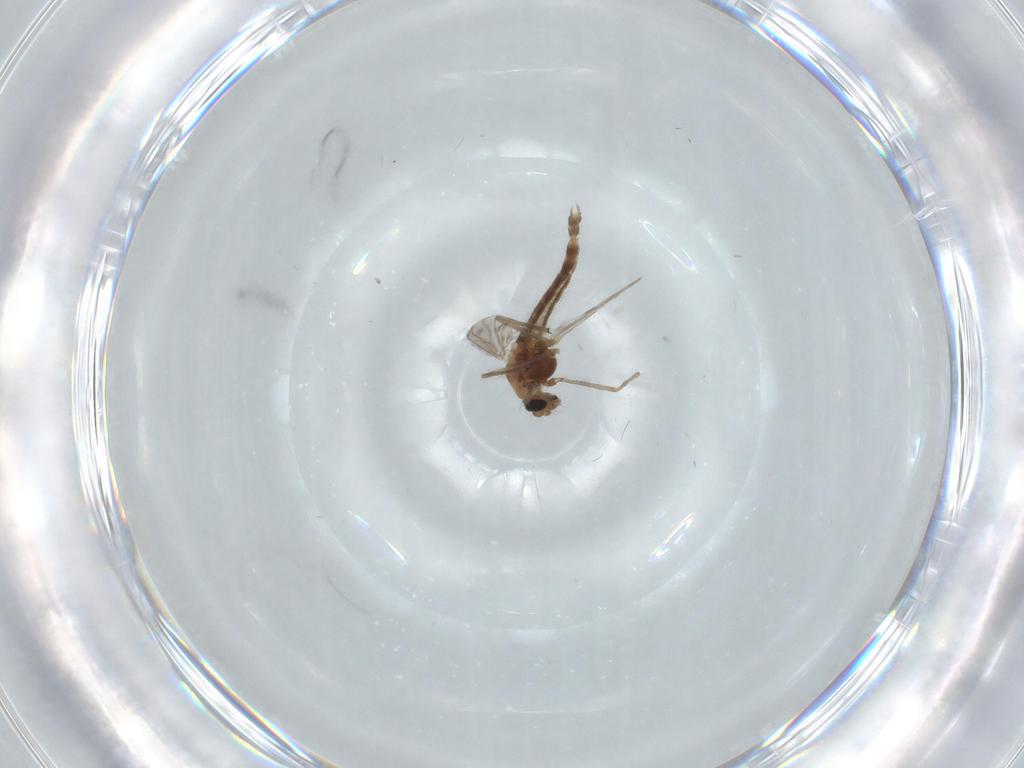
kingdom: Animalia
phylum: Arthropoda
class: Insecta
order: Diptera
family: Chironomidae
